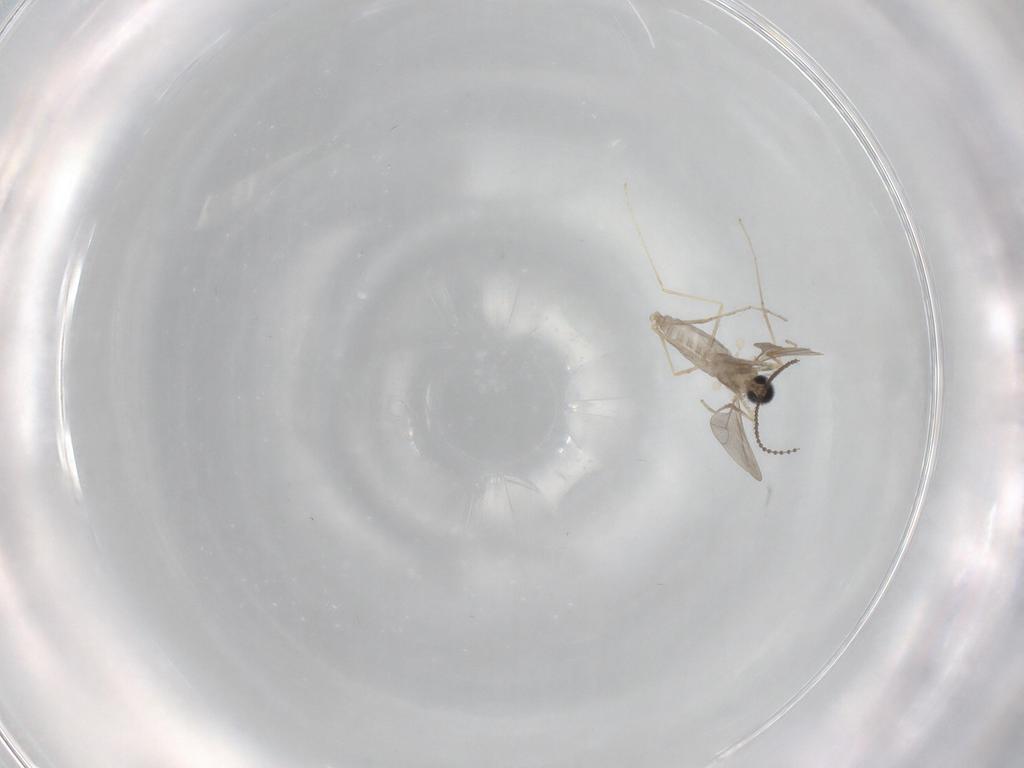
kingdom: Animalia
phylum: Arthropoda
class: Insecta
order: Diptera
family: Cecidomyiidae
